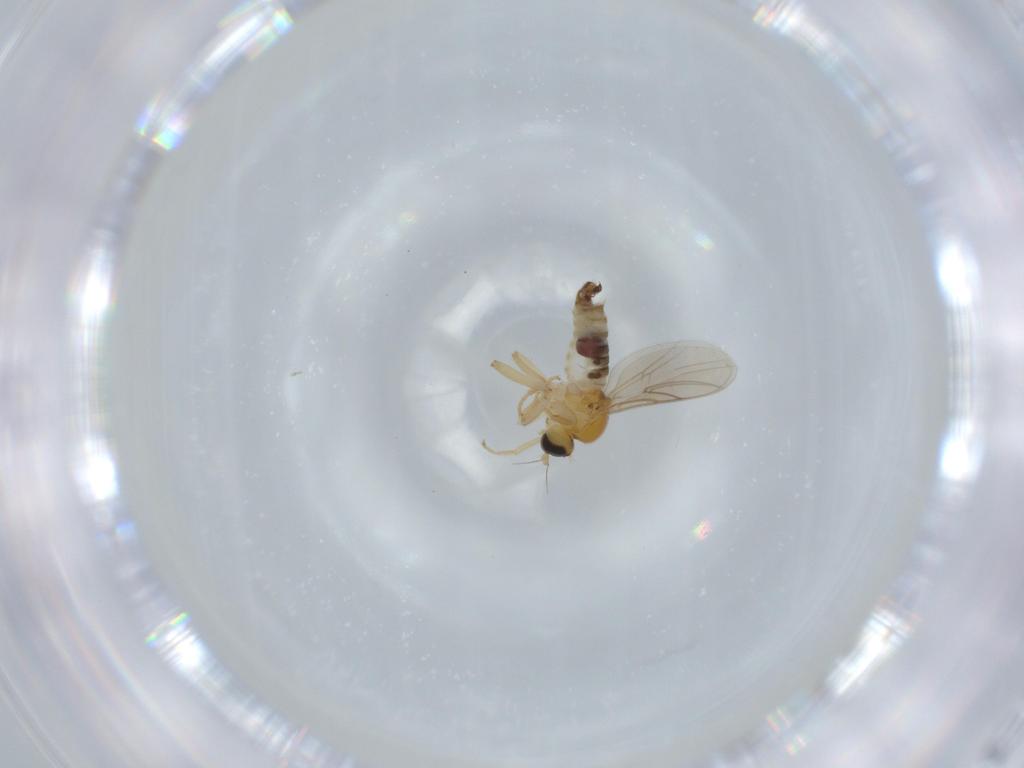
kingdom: Animalia
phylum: Arthropoda
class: Insecta
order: Diptera
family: Hybotidae
